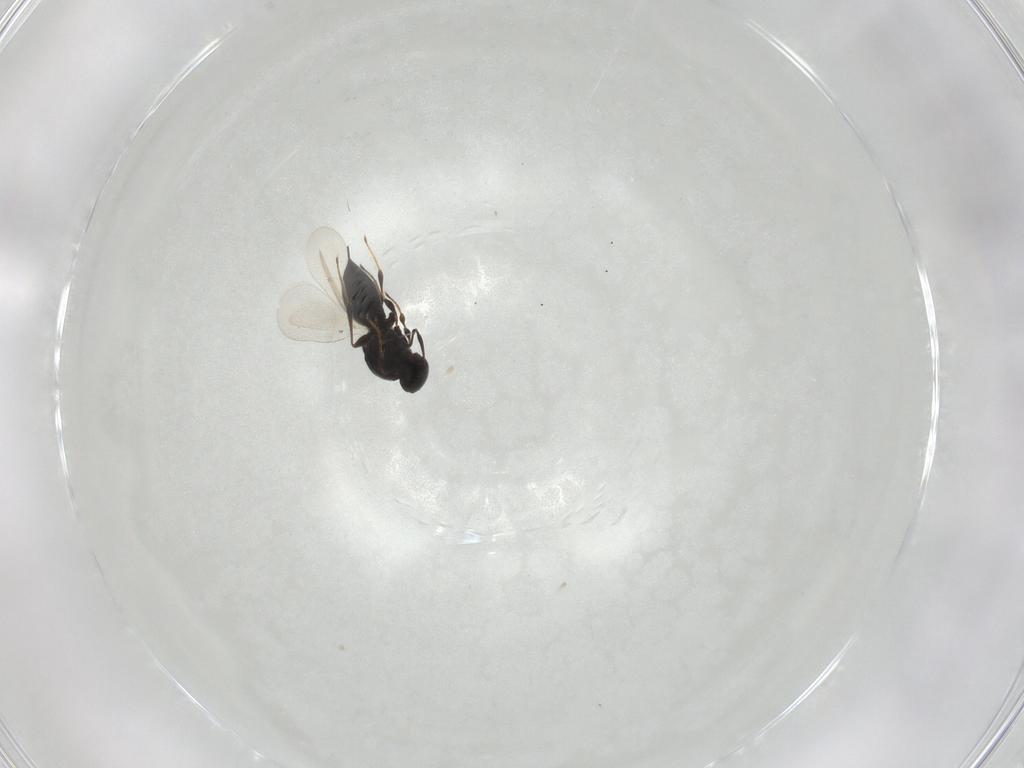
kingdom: Animalia
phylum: Arthropoda
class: Insecta
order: Hymenoptera
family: Platygastridae
